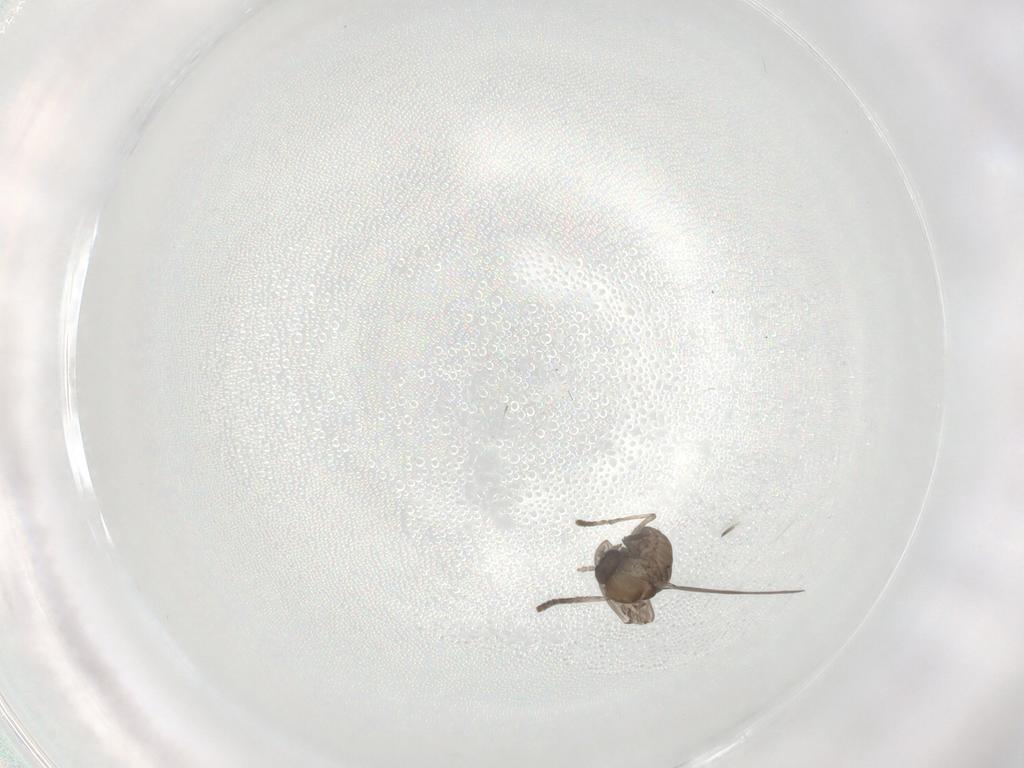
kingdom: Animalia
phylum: Arthropoda
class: Insecta
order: Diptera
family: Psychodidae
